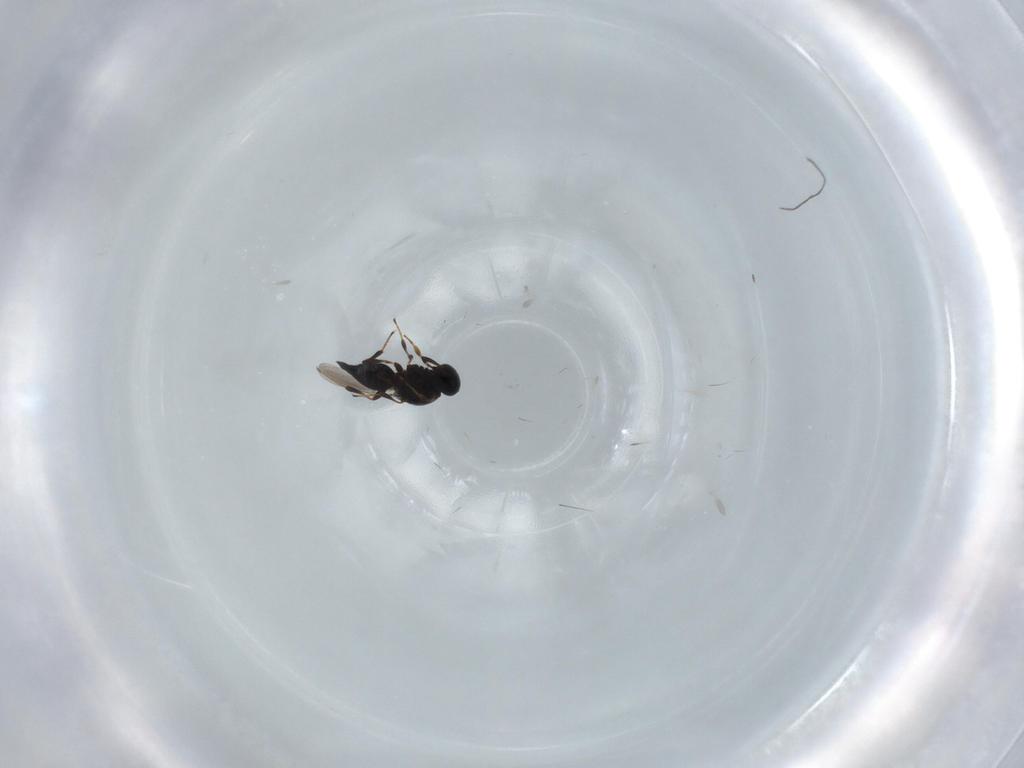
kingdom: Animalia
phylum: Arthropoda
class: Insecta
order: Hymenoptera
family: Platygastridae
